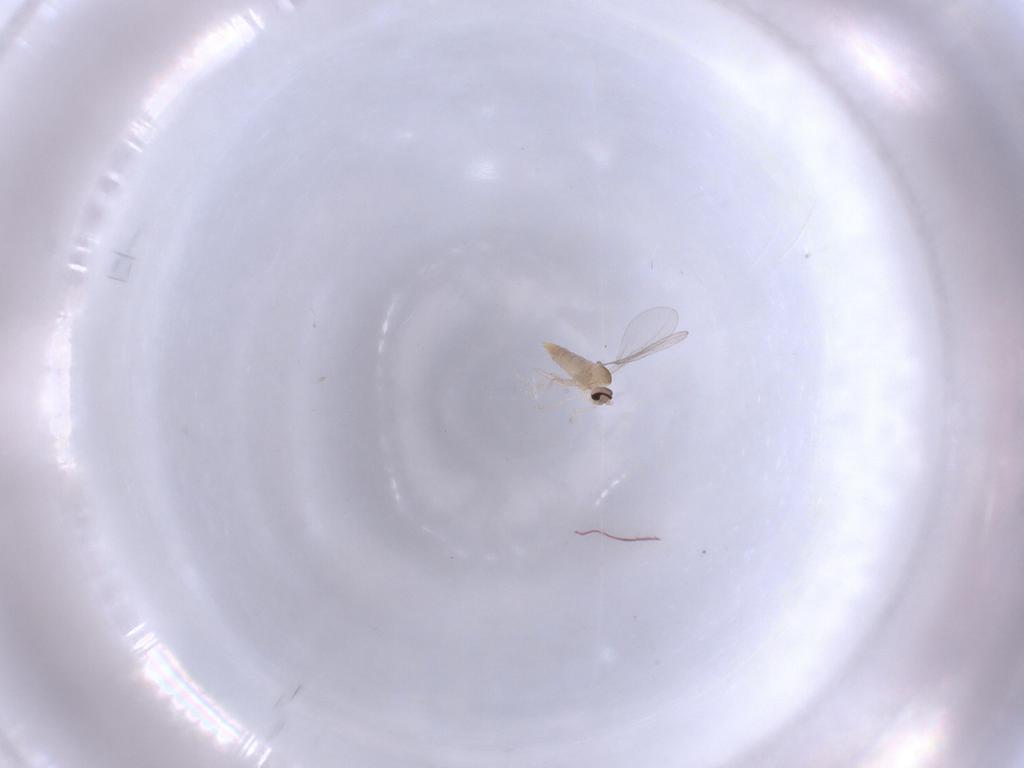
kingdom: Animalia
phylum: Arthropoda
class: Insecta
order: Diptera
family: Cecidomyiidae
